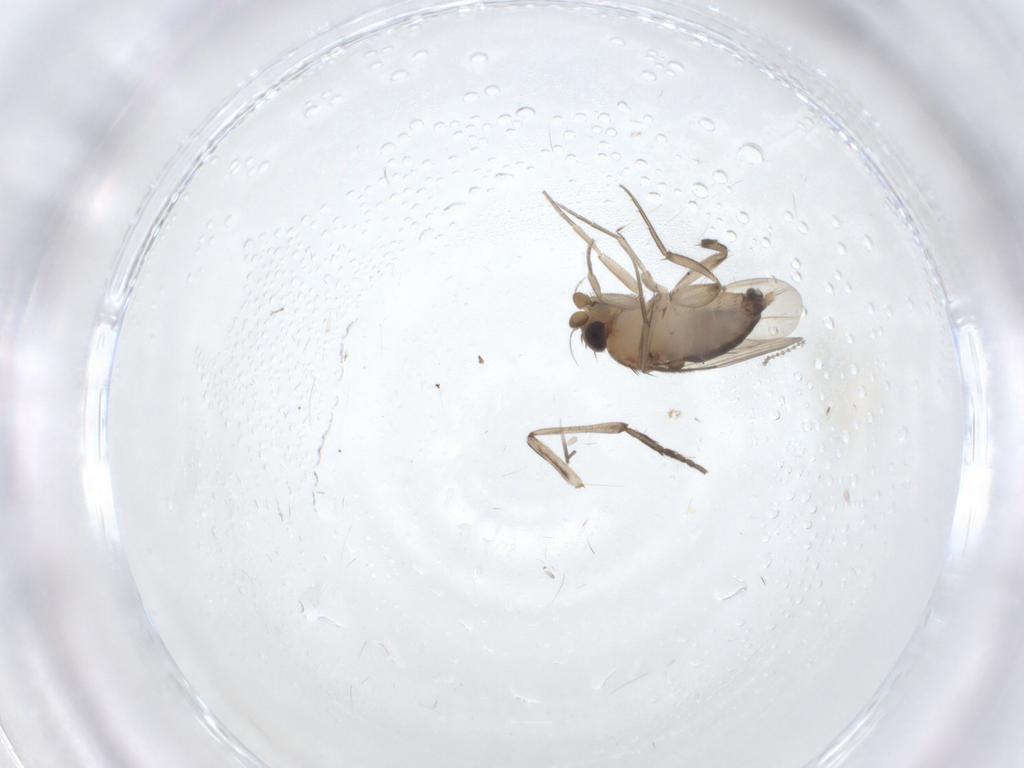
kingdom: Animalia
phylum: Arthropoda
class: Insecta
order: Diptera
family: Phoridae
